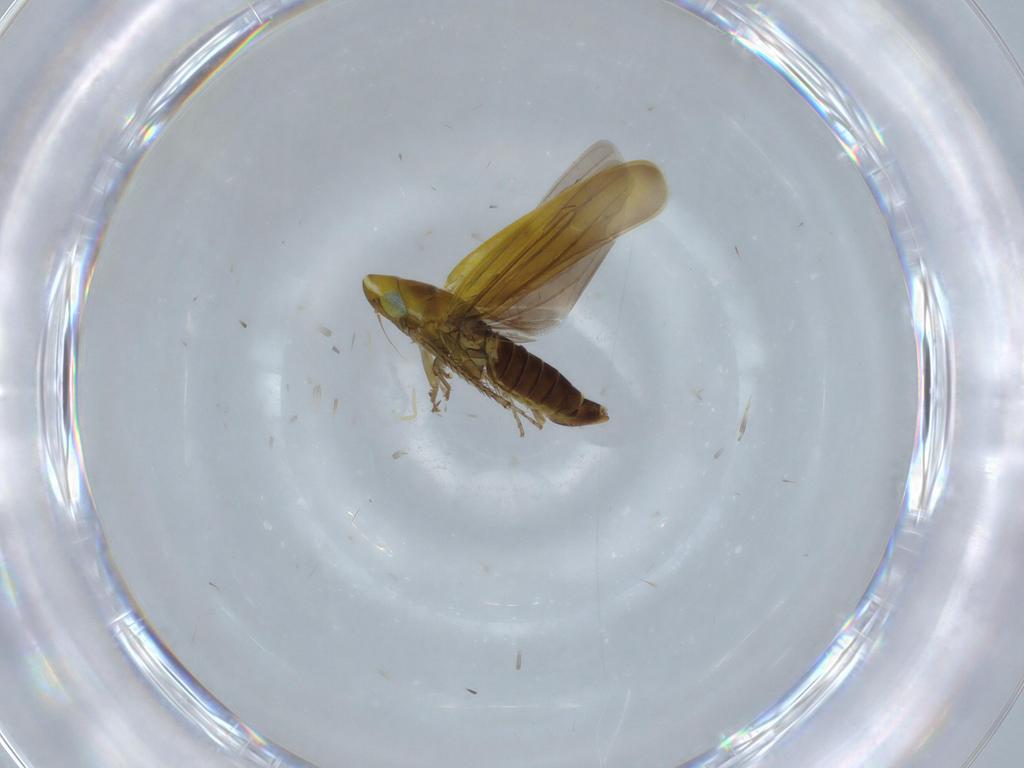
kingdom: Animalia
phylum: Arthropoda
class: Insecta
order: Hemiptera
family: Cicadellidae
